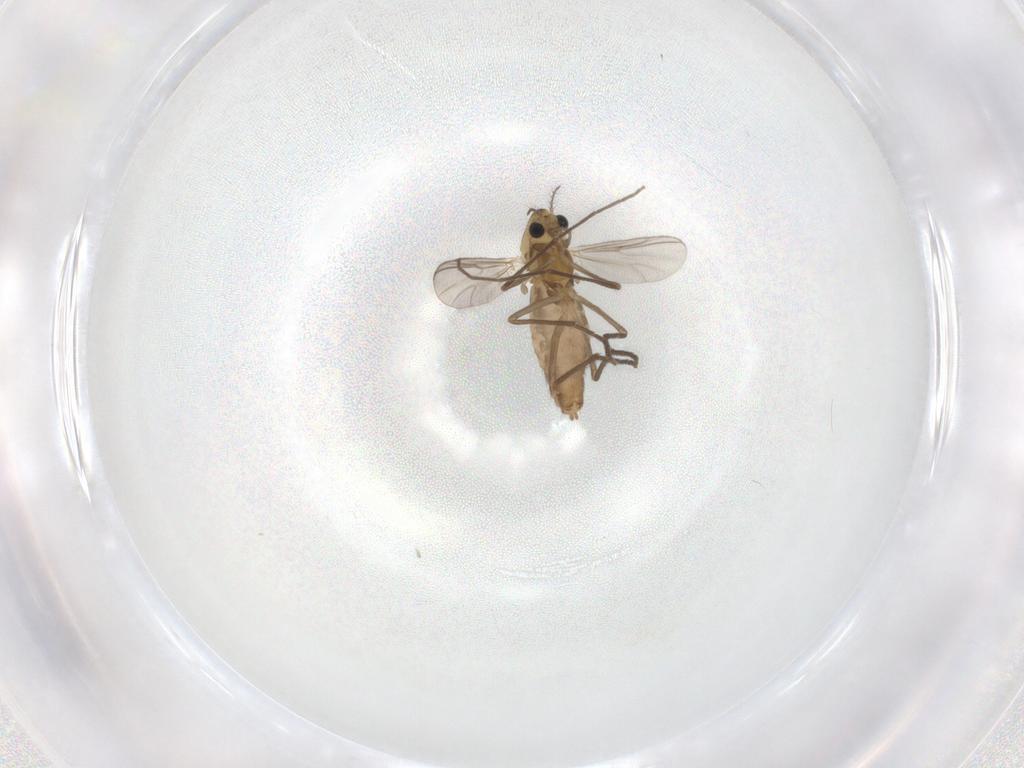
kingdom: Animalia
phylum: Arthropoda
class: Insecta
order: Diptera
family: Chironomidae
